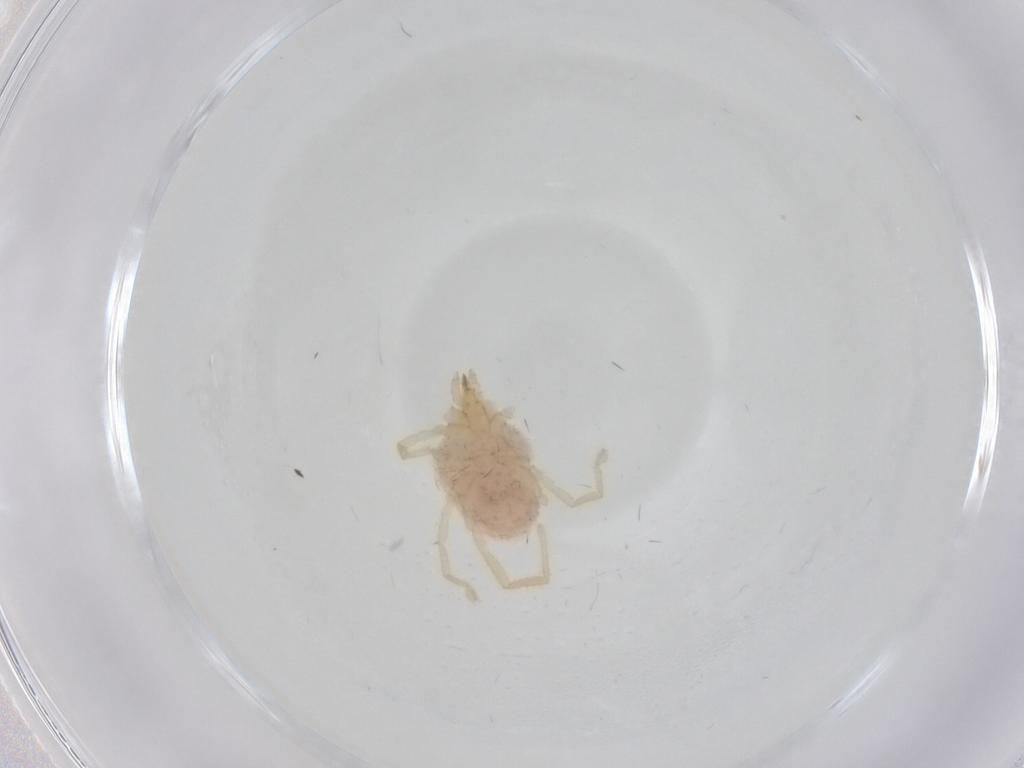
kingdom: Animalia
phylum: Arthropoda
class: Arachnida
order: Trombidiformes
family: Erythraeidae
